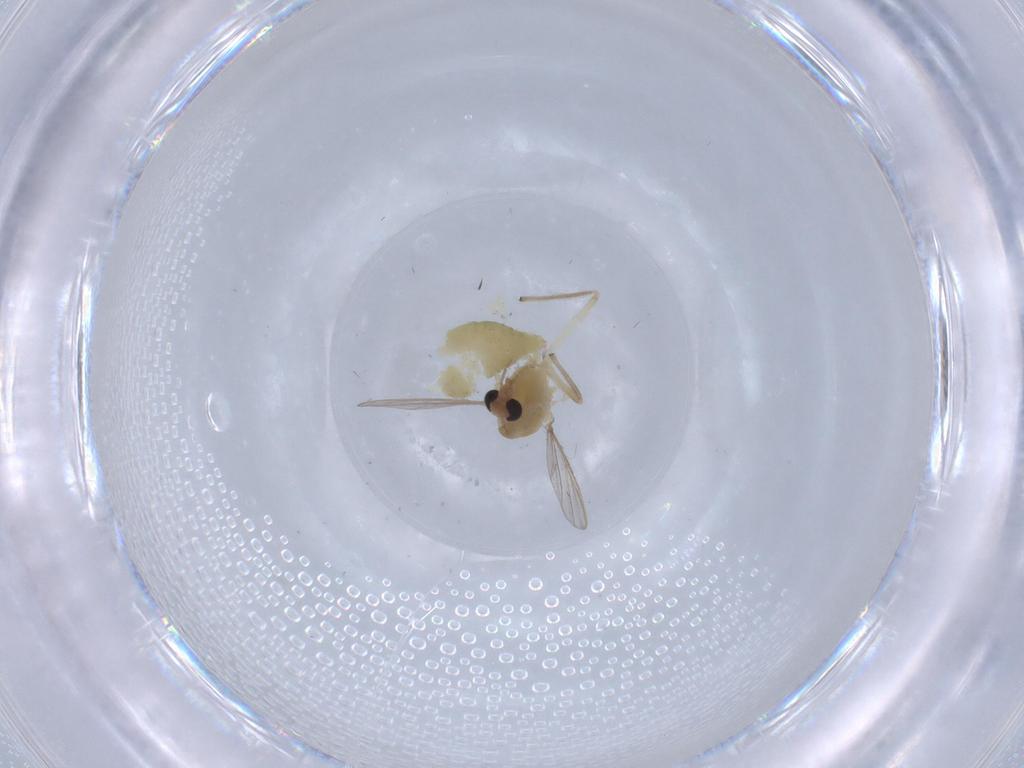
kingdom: Animalia
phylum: Arthropoda
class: Insecta
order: Diptera
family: Chironomidae
